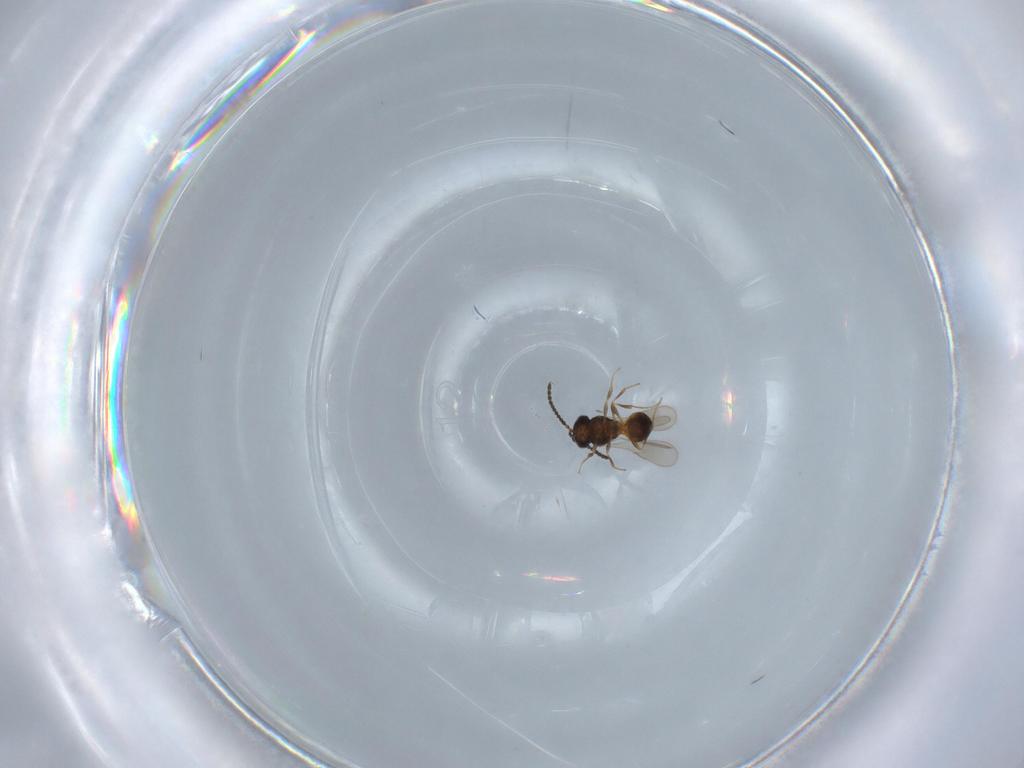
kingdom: Animalia
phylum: Arthropoda
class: Insecta
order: Hymenoptera
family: Scelionidae
